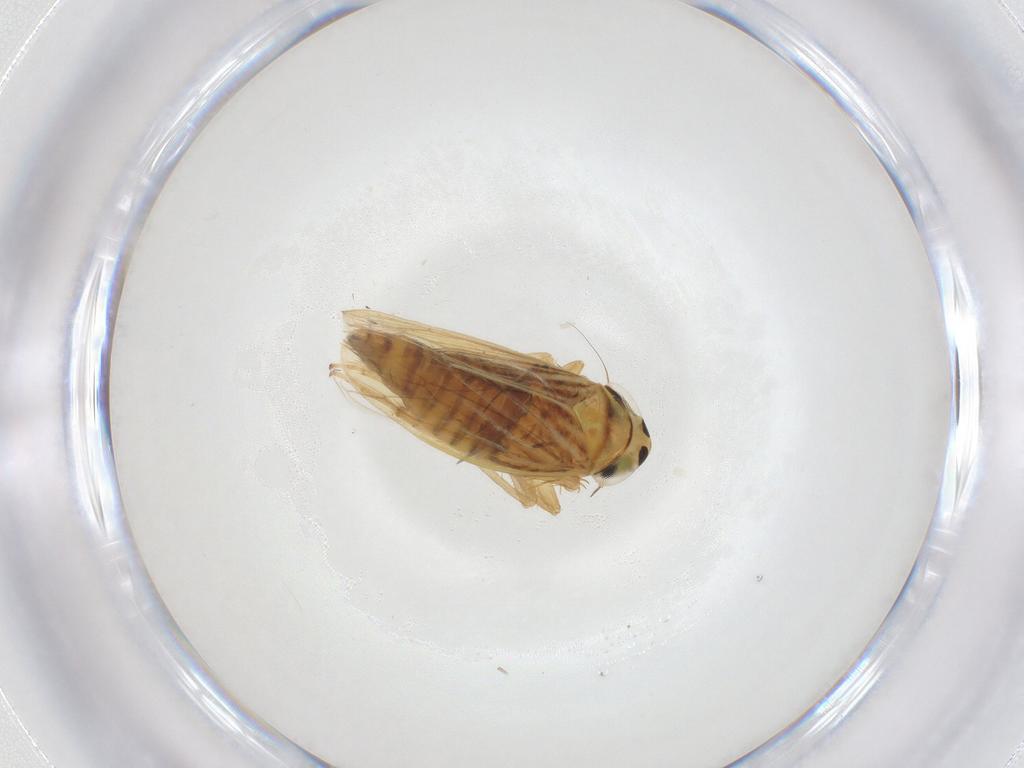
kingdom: Animalia
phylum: Arthropoda
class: Insecta
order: Hemiptera
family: Cicadellidae
